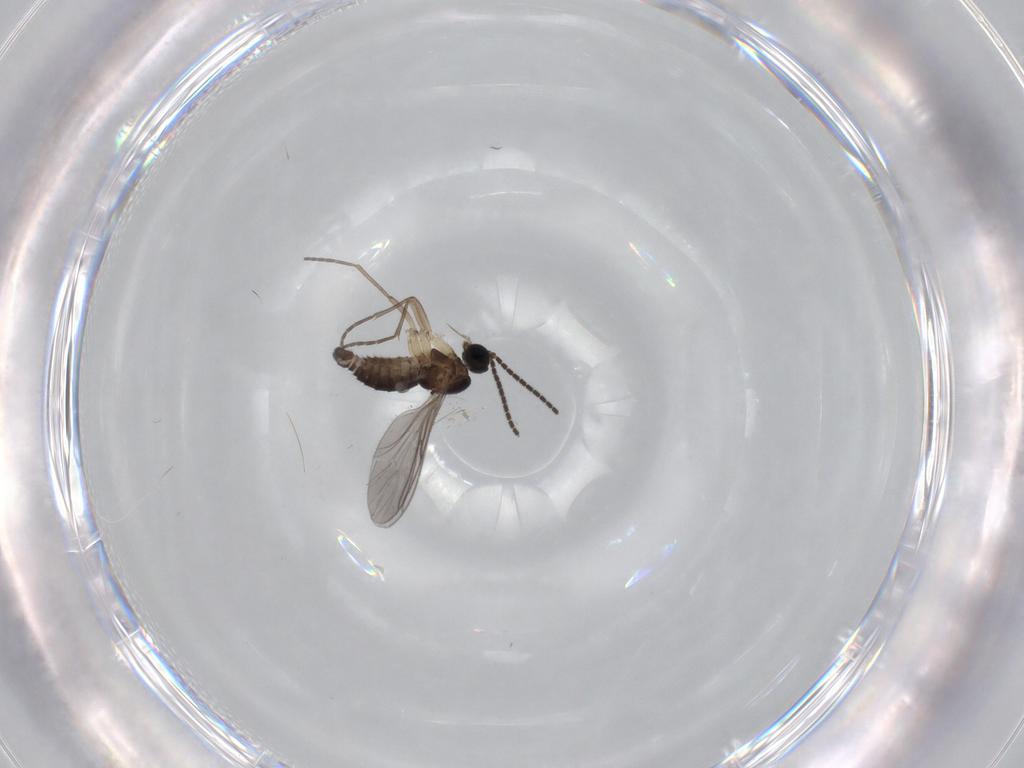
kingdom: Animalia
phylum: Arthropoda
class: Insecta
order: Diptera
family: Sciaridae
